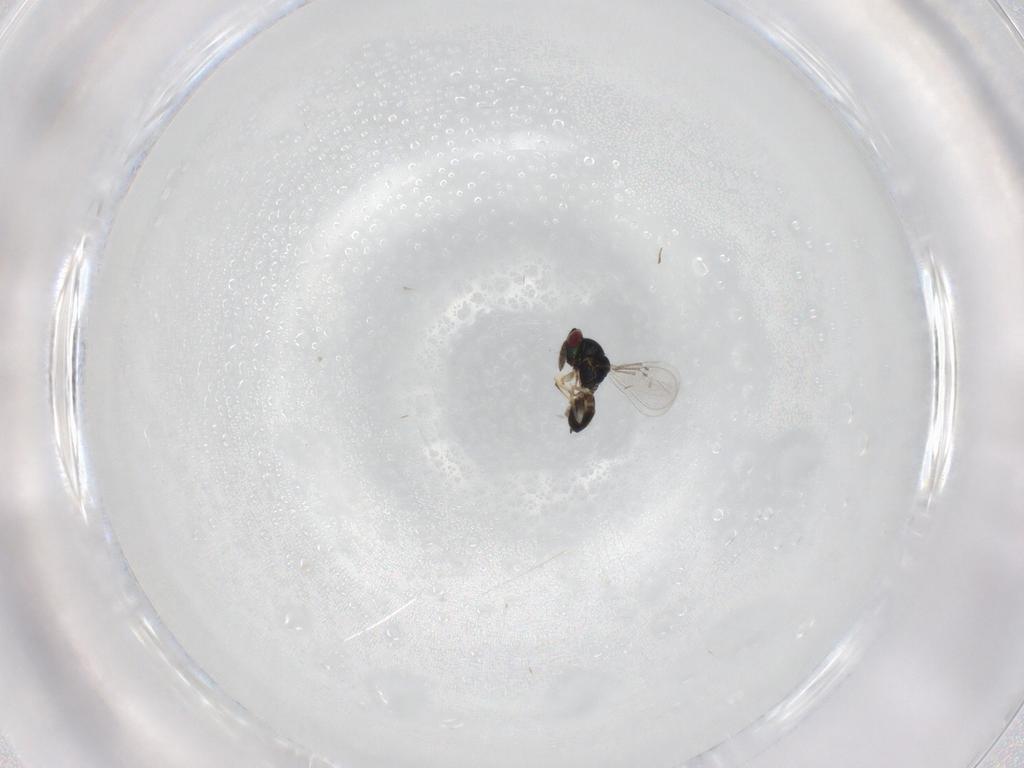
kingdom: Animalia
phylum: Arthropoda
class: Insecta
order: Hymenoptera
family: Eulophidae
